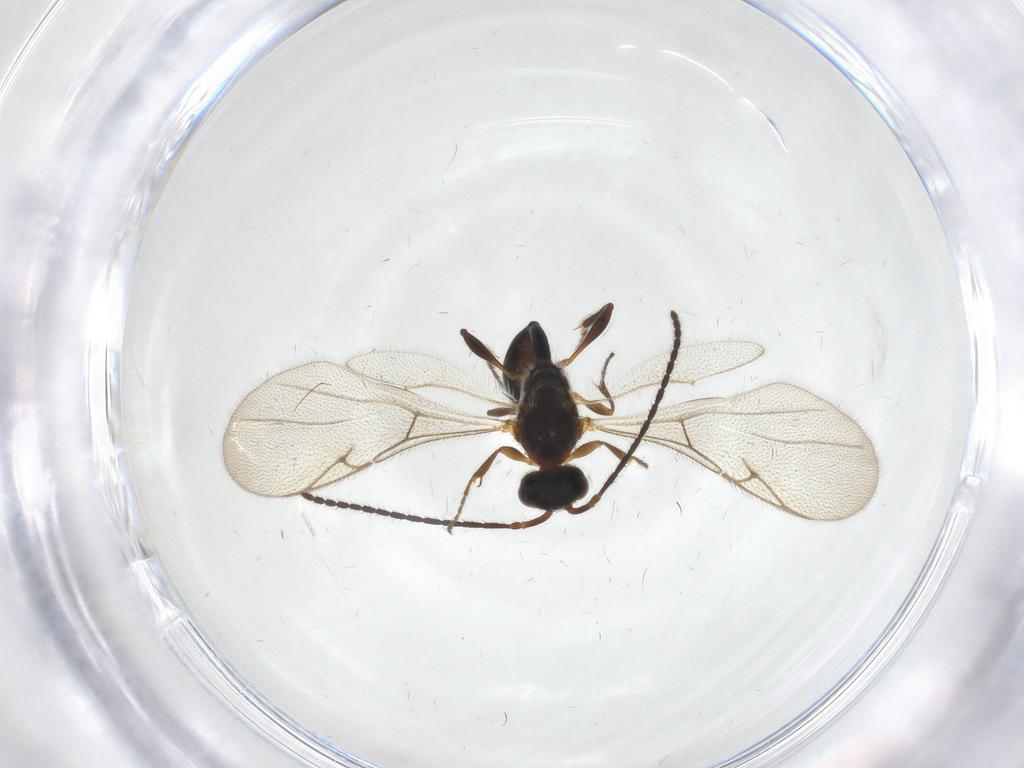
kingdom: Animalia
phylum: Arthropoda
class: Insecta
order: Hymenoptera
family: Diapriidae
